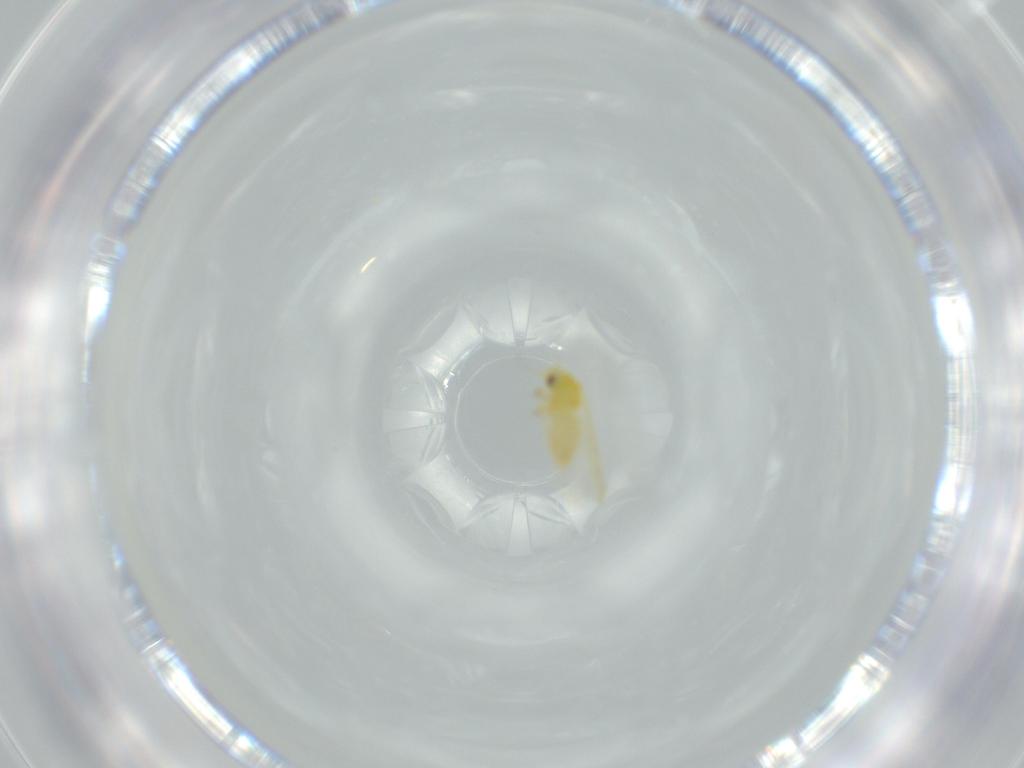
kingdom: Animalia
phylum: Arthropoda
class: Insecta
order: Hemiptera
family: Aleyrodidae
